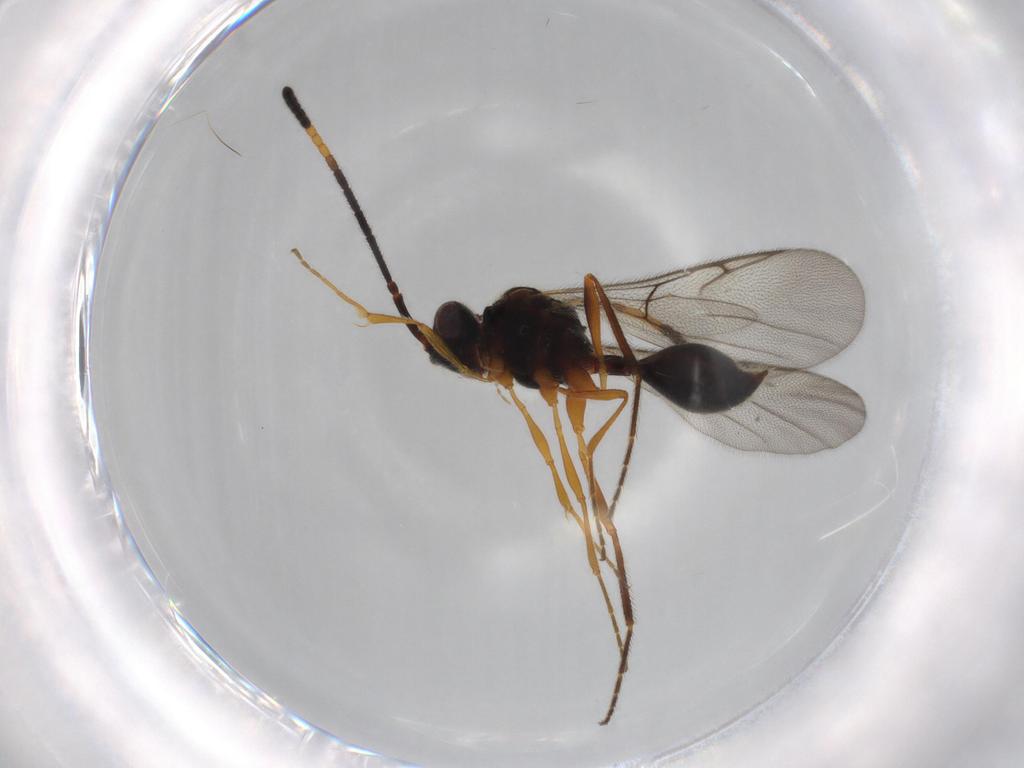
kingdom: Animalia
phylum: Arthropoda
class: Insecta
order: Hymenoptera
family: Diapriidae
